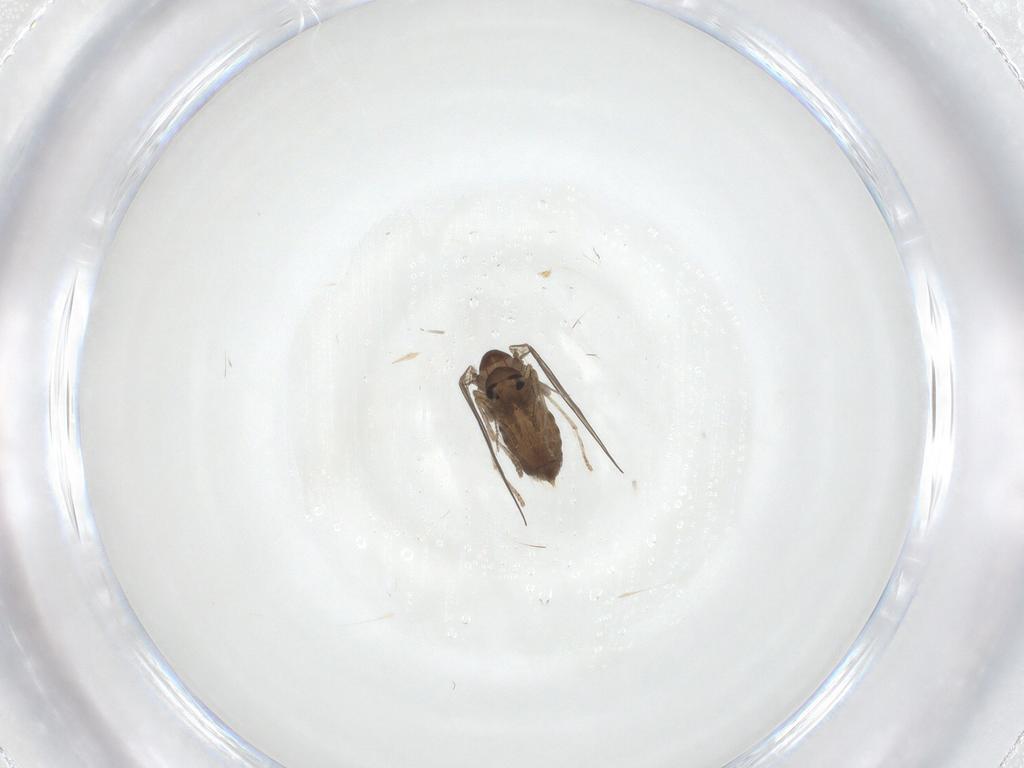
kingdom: Animalia
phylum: Arthropoda
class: Insecta
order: Diptera
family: Psychodidae
